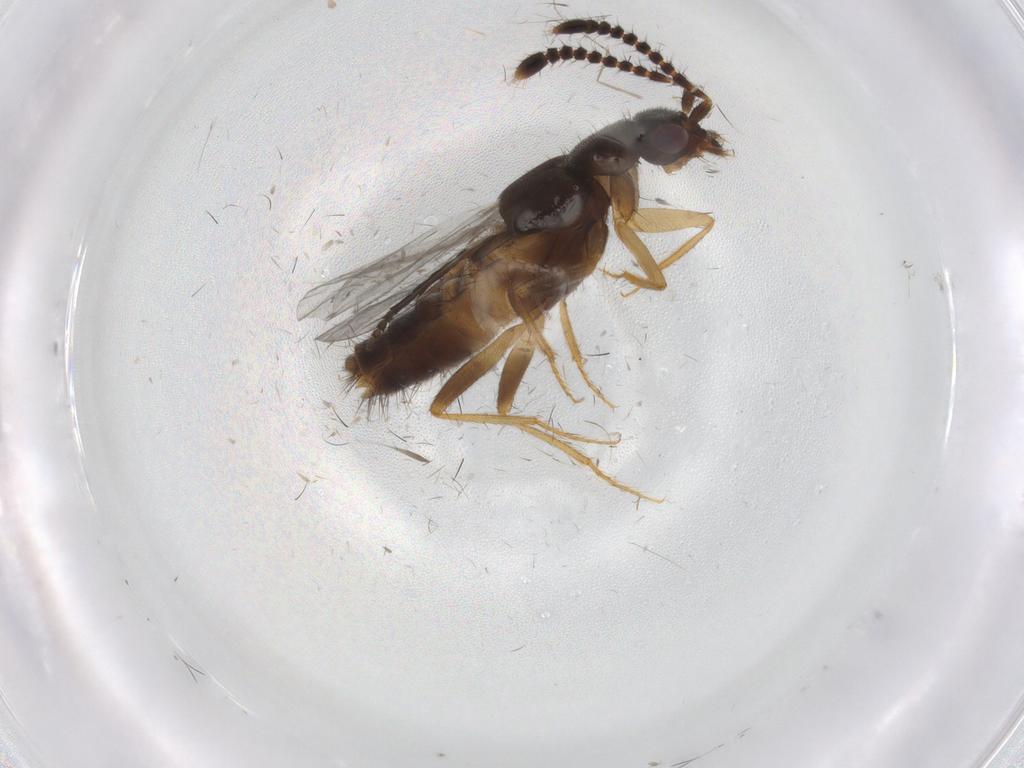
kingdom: Animalia
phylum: Arthropoda
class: Insecta
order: Coleoptera
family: Staphylinidae
